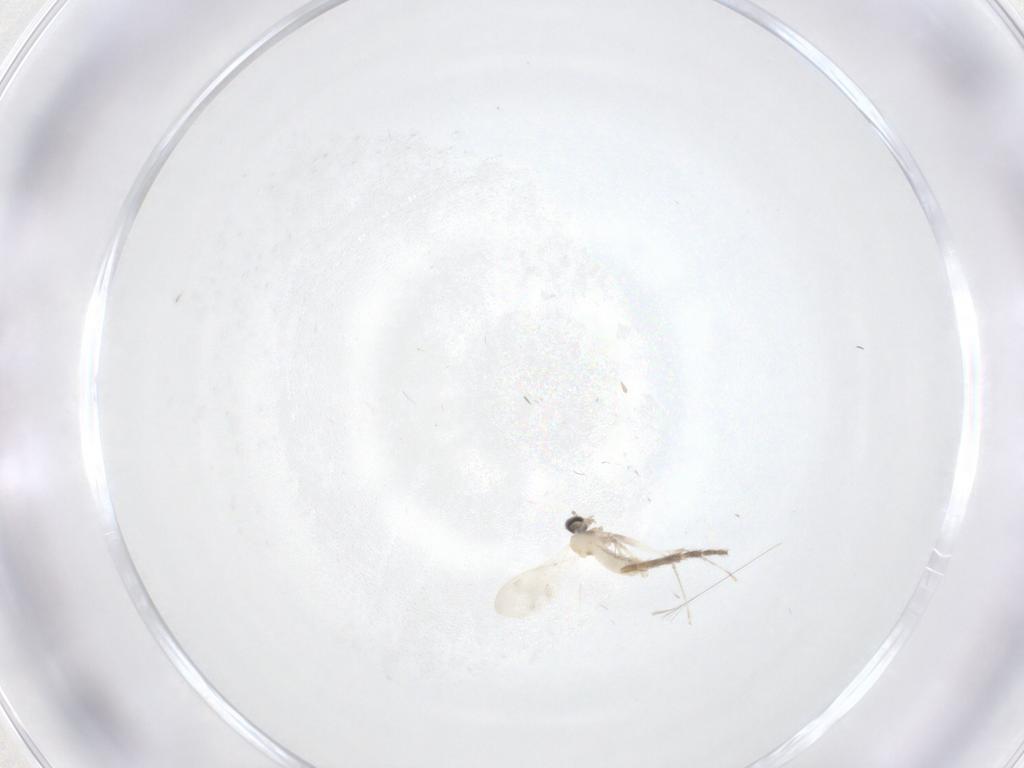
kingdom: Animalia
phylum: Arthropoda
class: Insecta
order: Diptera
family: Cecidomyiidae
